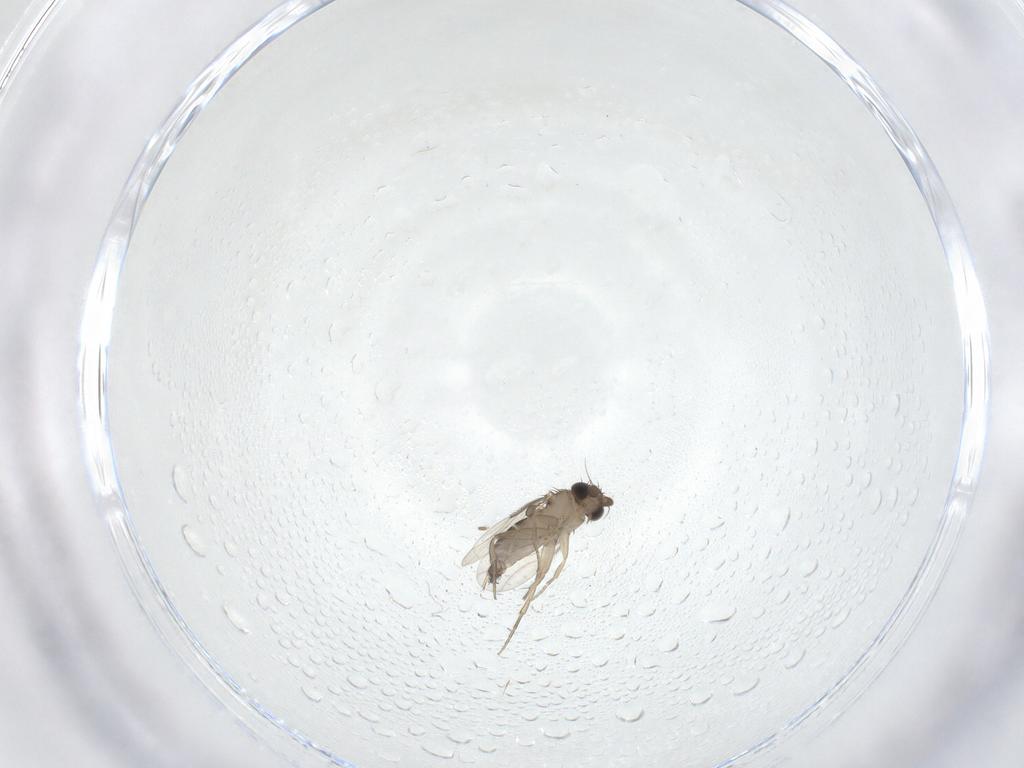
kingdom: Animalia
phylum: Arthropoda
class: Insecta
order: Diptera
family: Phoridae
